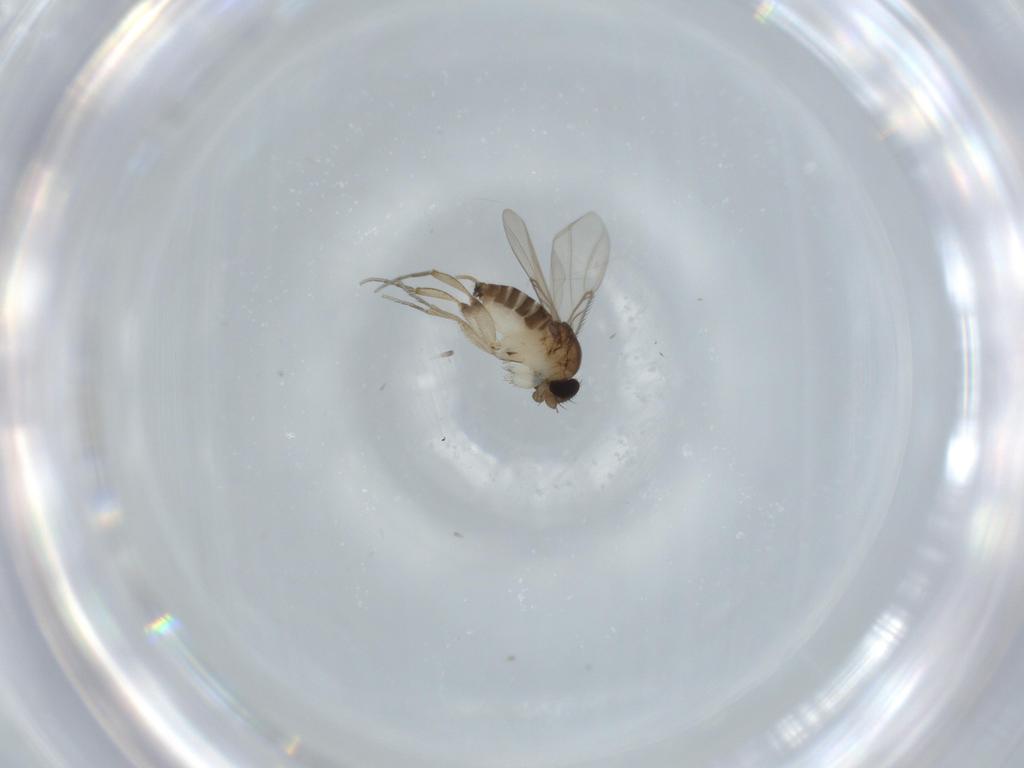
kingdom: Animalia
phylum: Arthropoda
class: Insecta
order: Diptera
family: Phoridae
